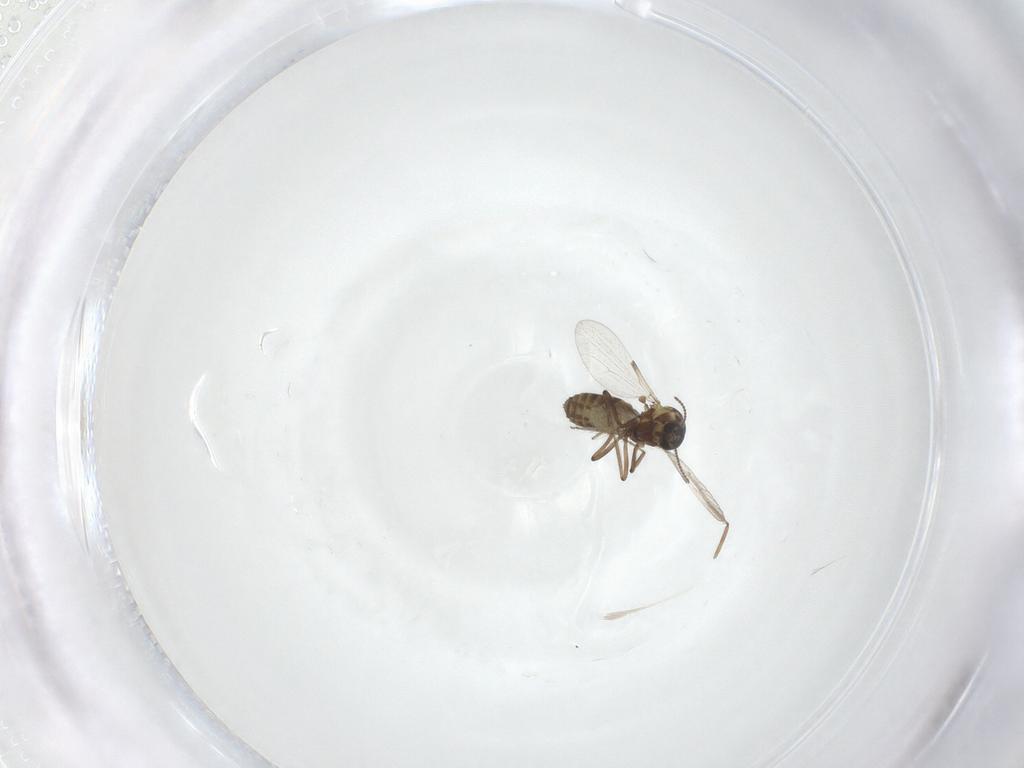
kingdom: Animalia
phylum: Arthropoda
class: Insecta
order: Diptera
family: Ceratopogonidae
